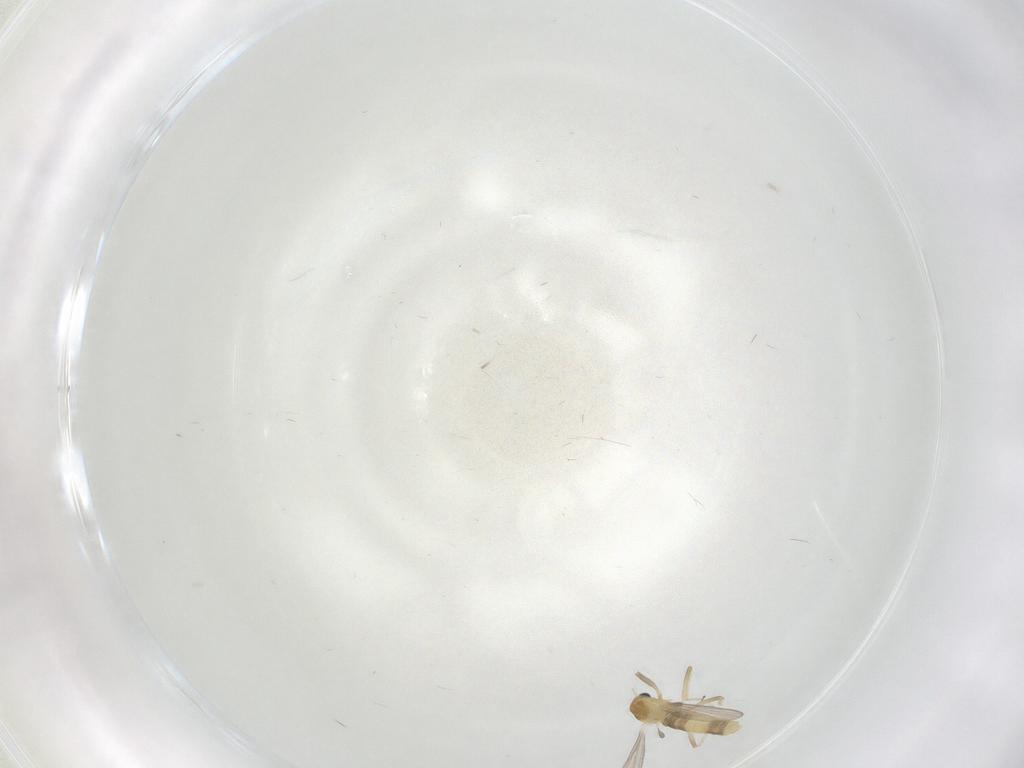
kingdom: Animalia
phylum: Arthropoda
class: Insecta
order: Diptera
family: Chironomidae
